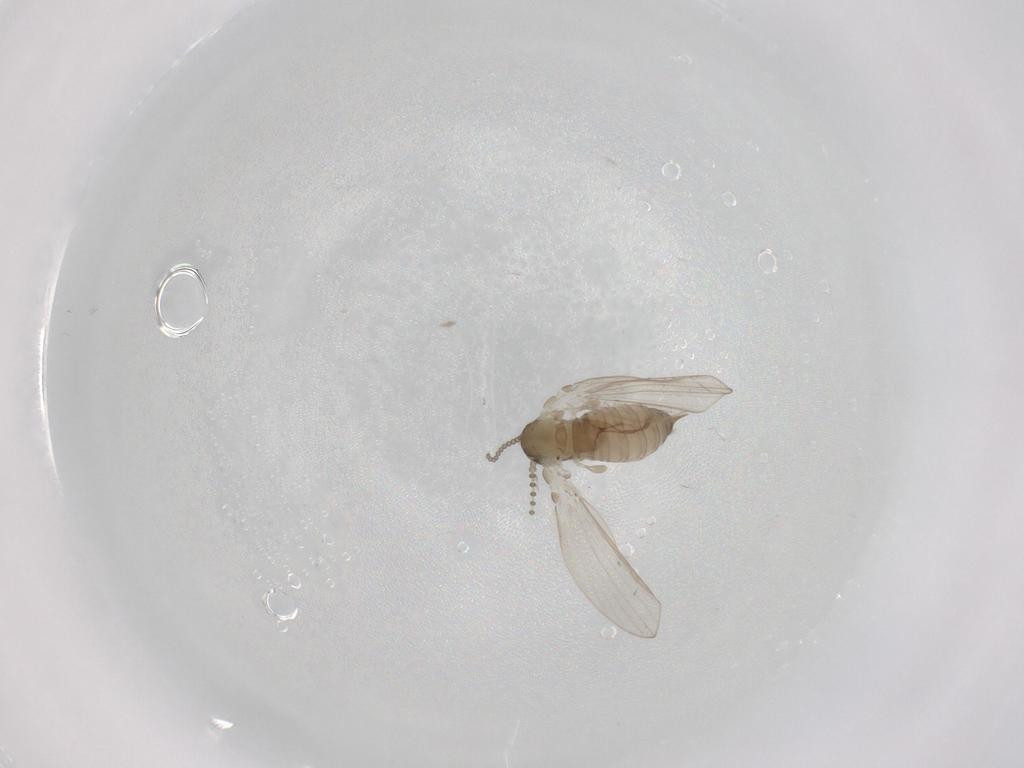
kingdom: Animalia
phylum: Arthropoda
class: Insecta
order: Diptera
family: Psychodidae
